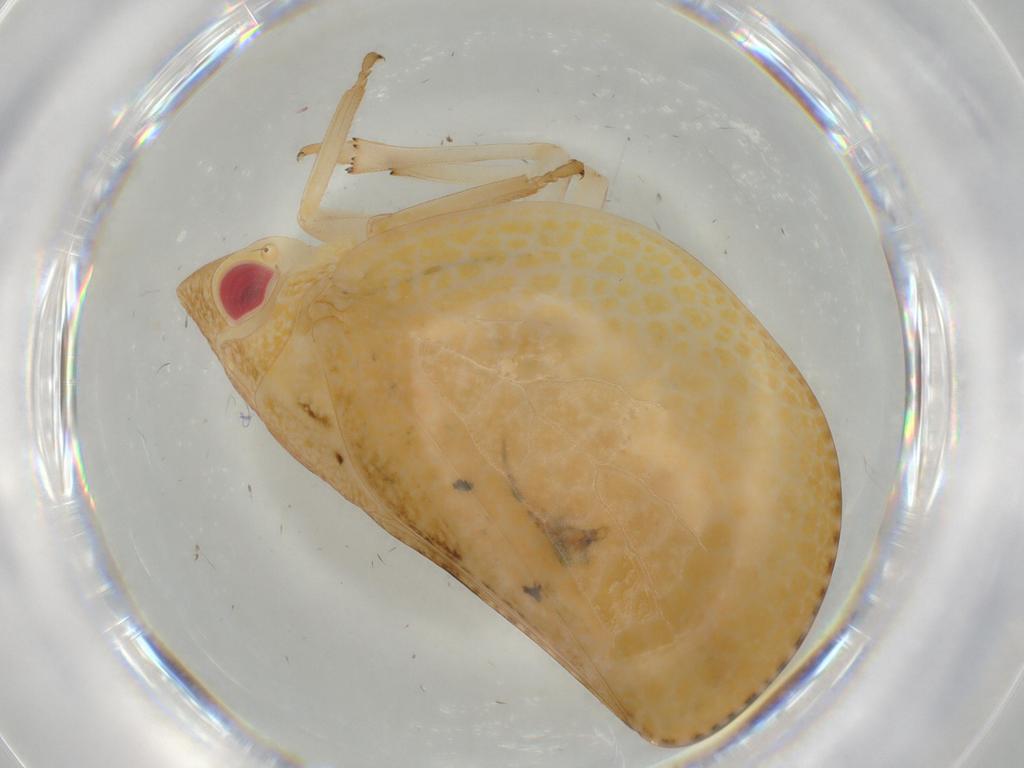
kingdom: Animalia
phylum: Arthropoda
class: Insecta
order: Hemiptera
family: Acanaloniidae
